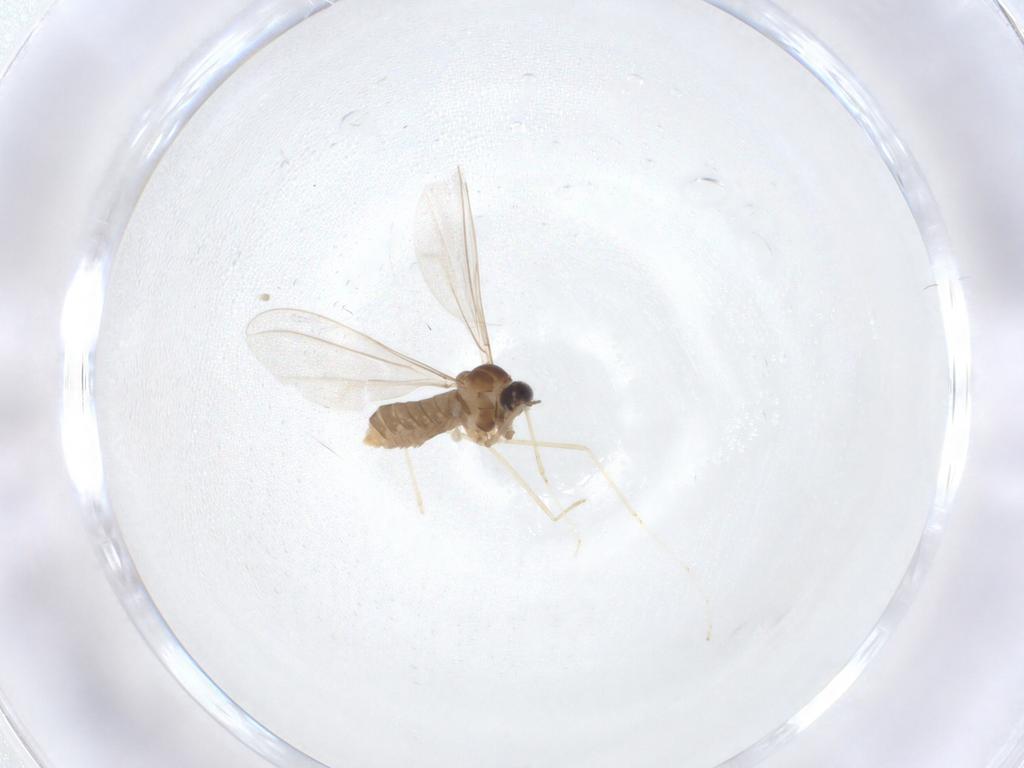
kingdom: Animalia
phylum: Arthropoda
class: Insecta
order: Diptera
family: Cecidomyiidae
